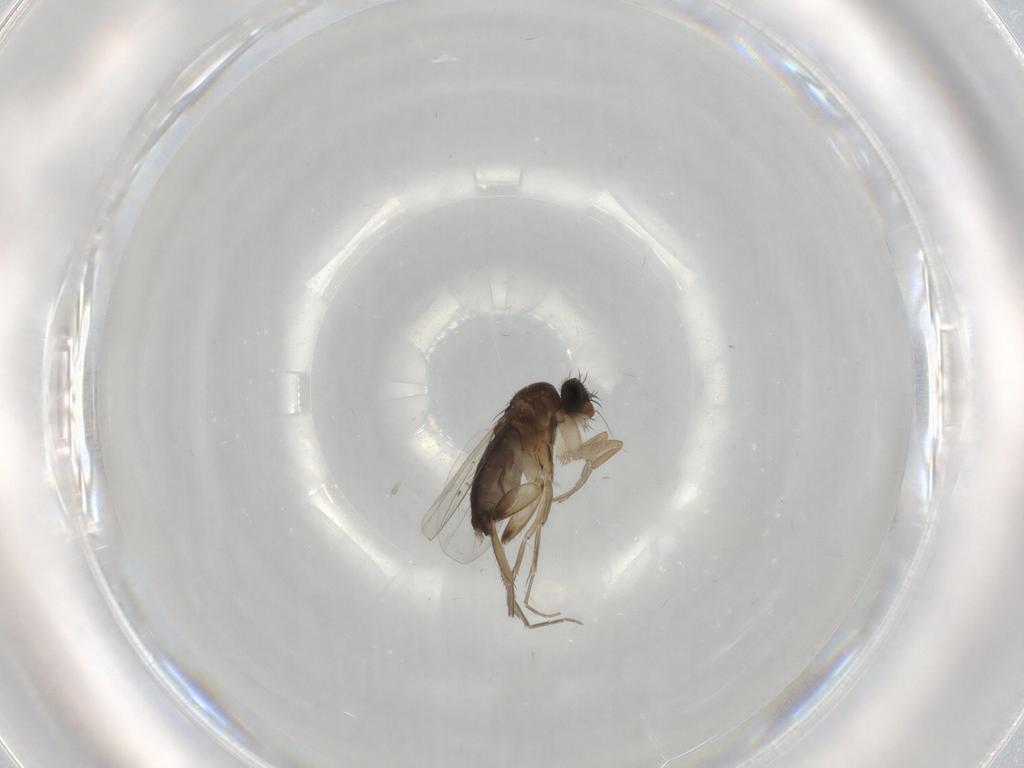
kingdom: Animalia
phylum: Arthropoda
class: Insecta
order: Diptera
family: Phoridae
